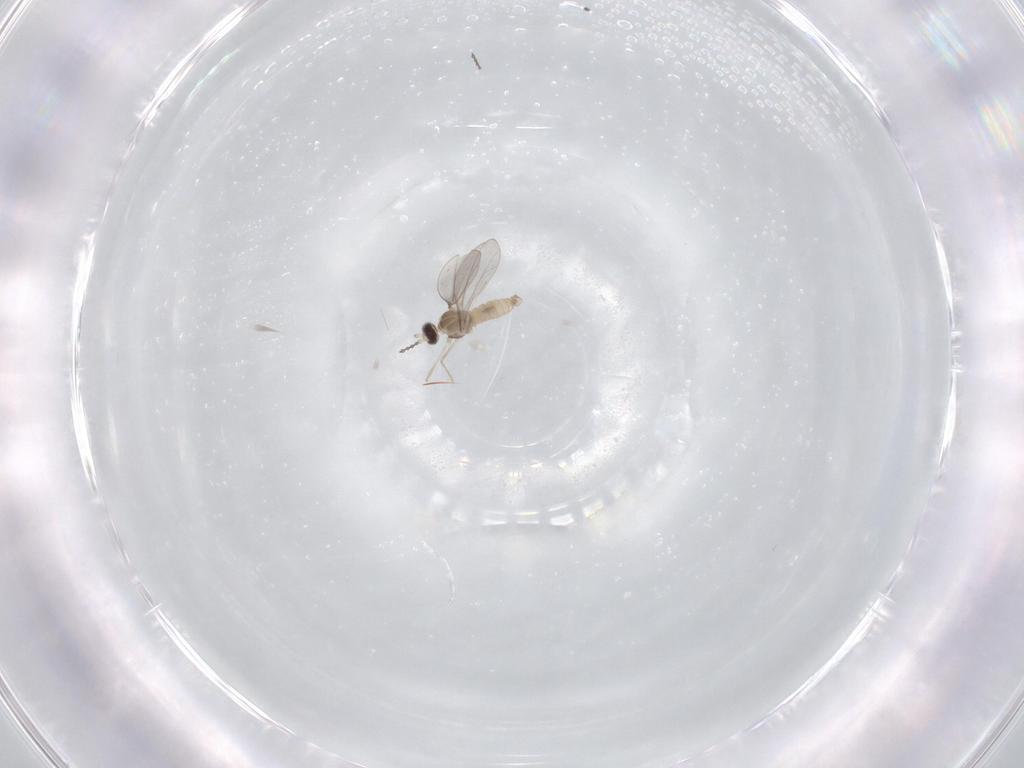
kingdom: Animalia
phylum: Arthropoda
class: Insecta
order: Diptera
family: Cecidomyiidae
